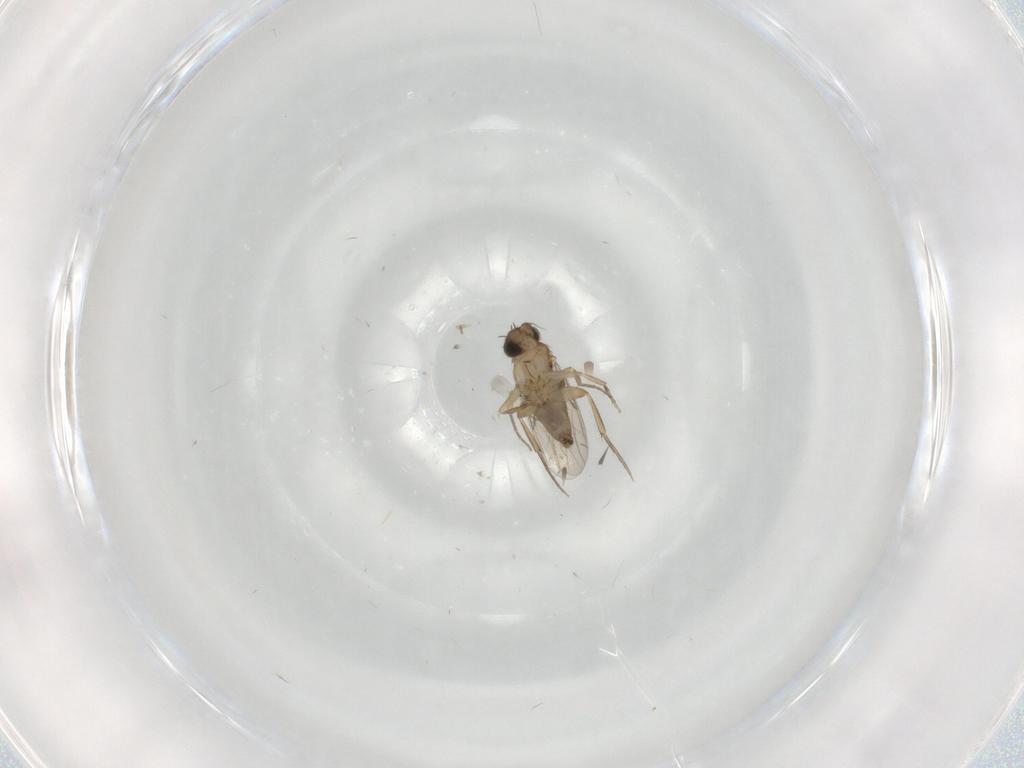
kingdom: Animalia
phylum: Arthropoda
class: Insecta
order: Diptera
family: Phoridae
